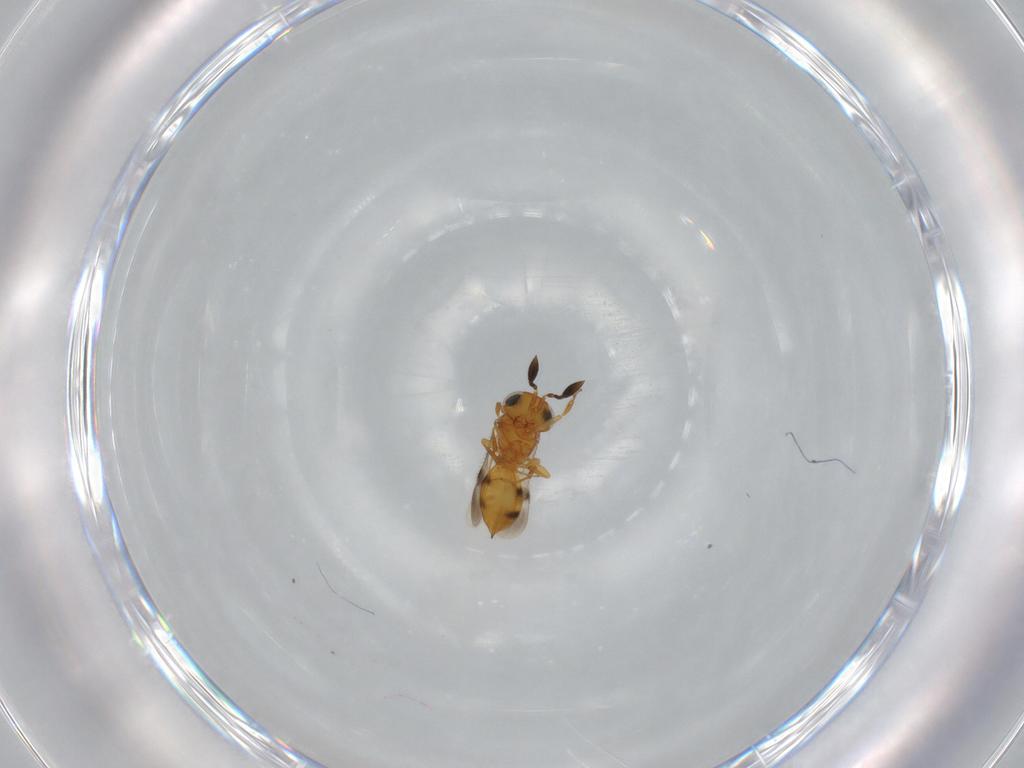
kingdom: Animalia
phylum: Arthropoda
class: Insecta
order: Hymenoptera
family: Scelionidae
